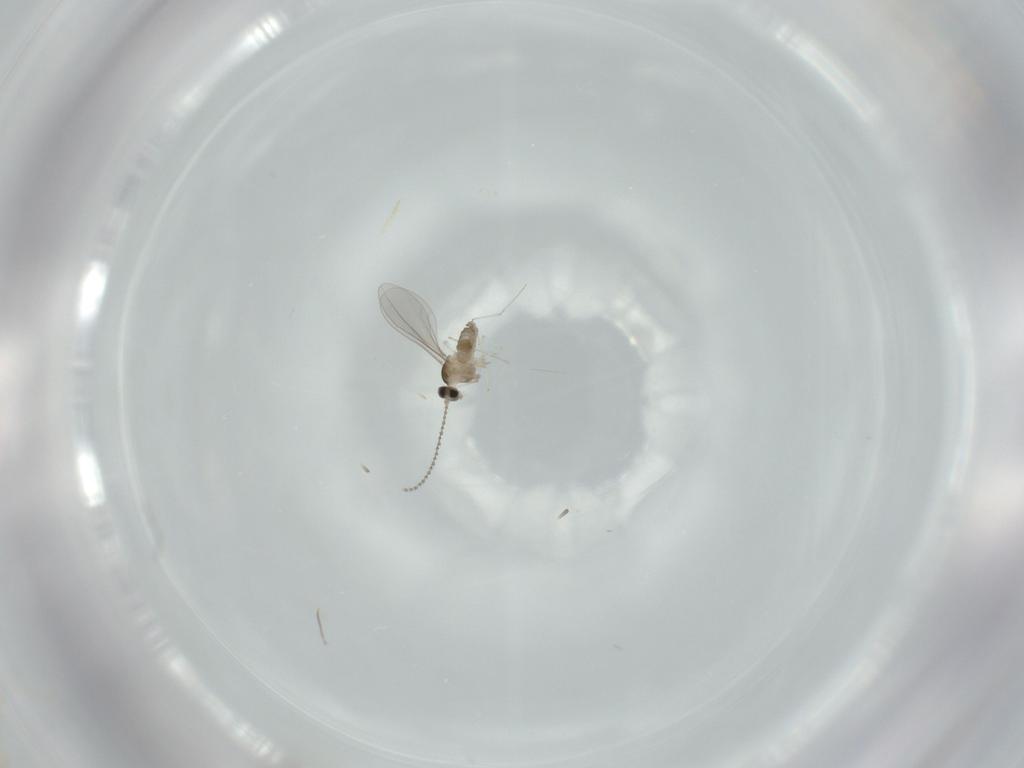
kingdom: Animalia
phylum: Arthropoda
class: Insecta
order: Diptera
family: Cecidomyiidae
